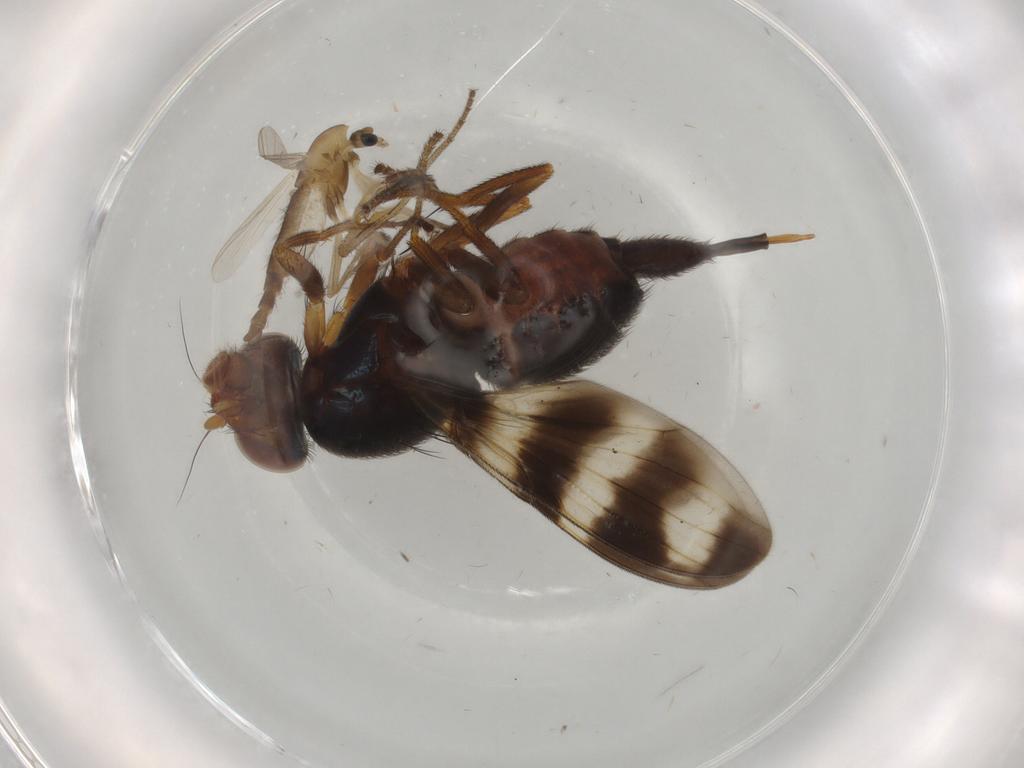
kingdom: Animalia
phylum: Arthropoda
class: Insecta
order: Diptera
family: Chironomidae
